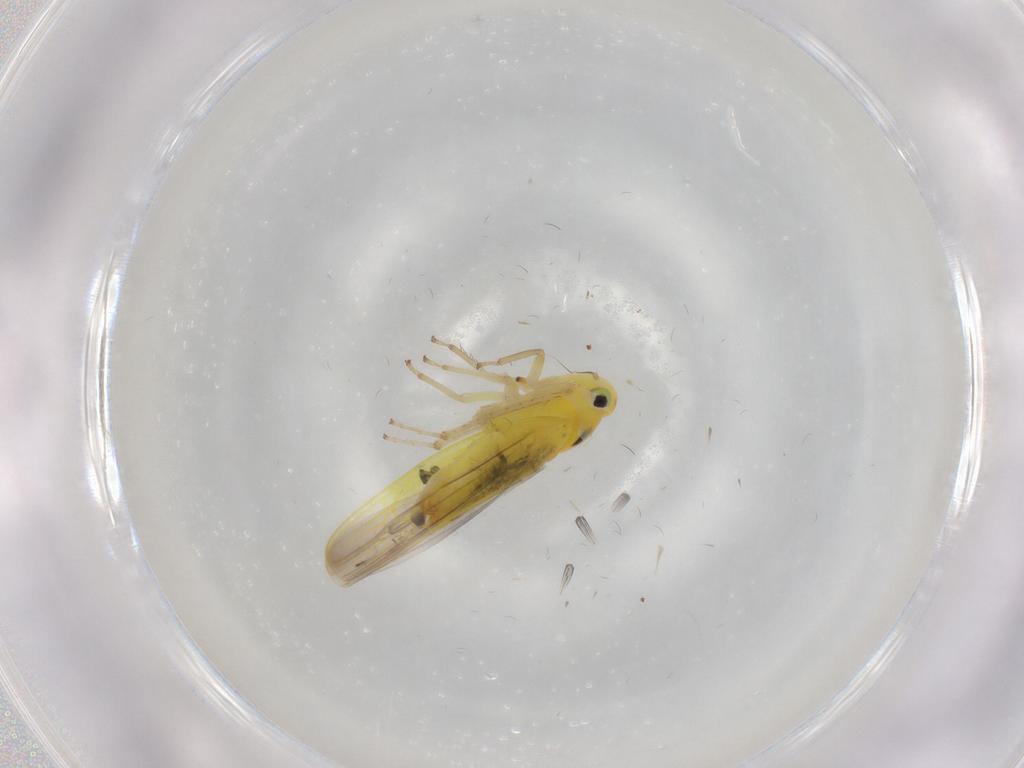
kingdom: Animalia
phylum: Arthropoda
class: Insecta
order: Hemiptera
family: Cicadellidae
